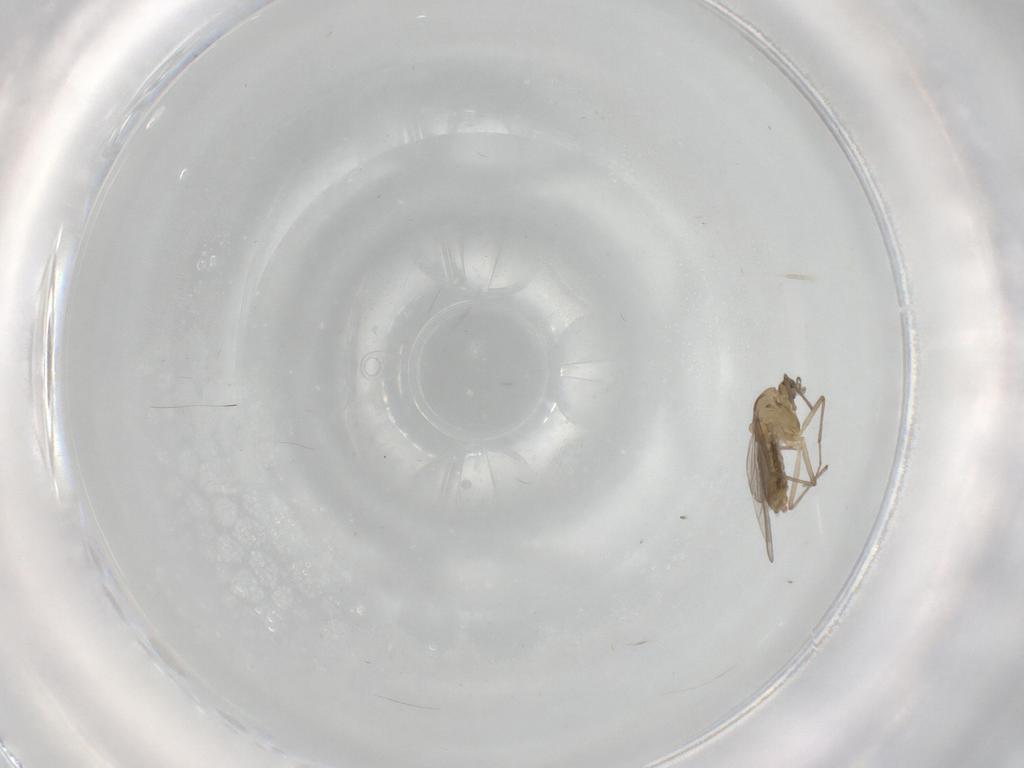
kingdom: Animalia
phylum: Arthropoda
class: Insecta
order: Diptera
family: Chironomidae
